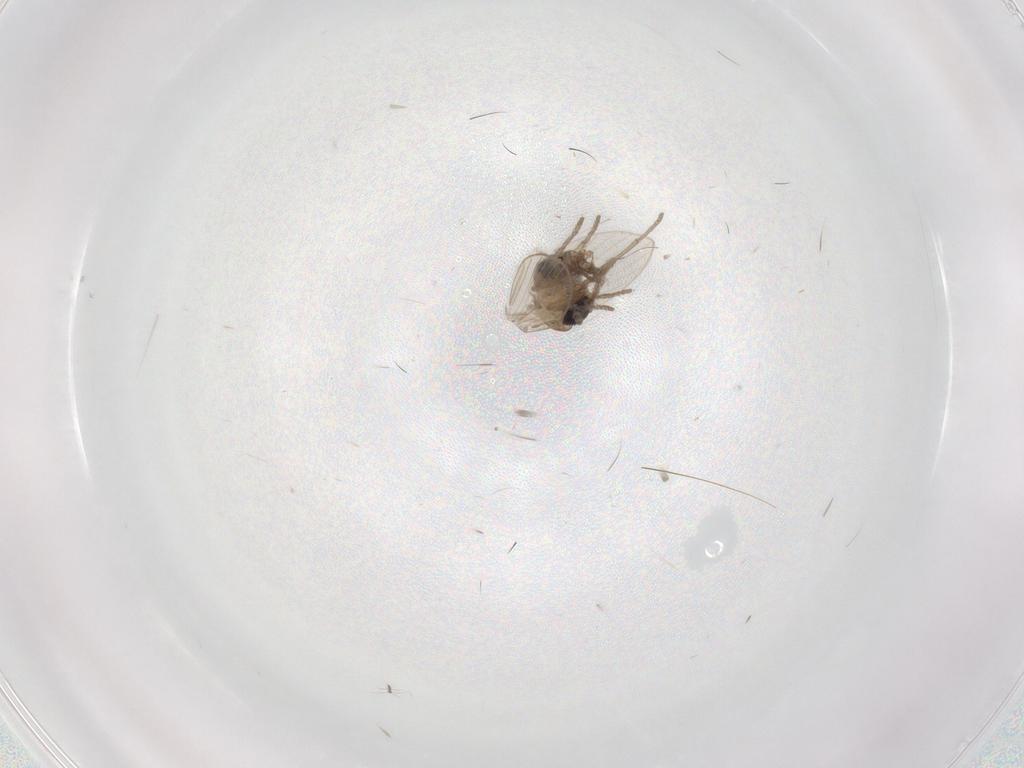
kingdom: Animalia
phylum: Arthropoda
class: Insecta
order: Diptera
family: Psychodidae
